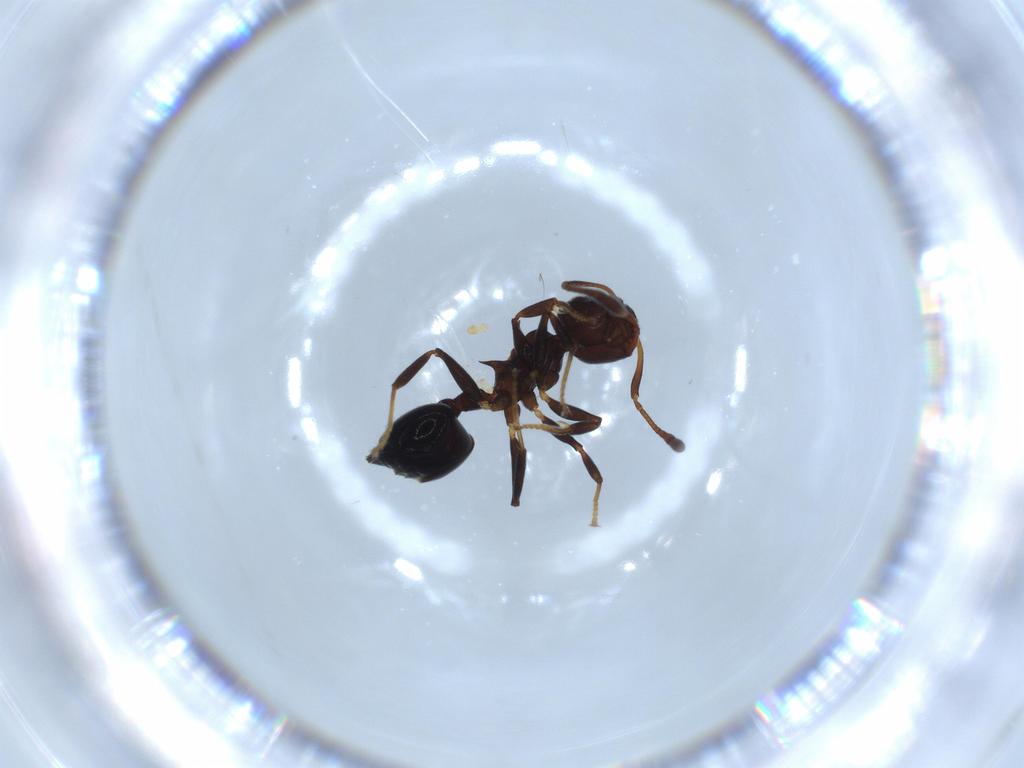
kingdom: Animalia
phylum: Arthropoda
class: Insecta
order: Hymenoptera
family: Formicidae
